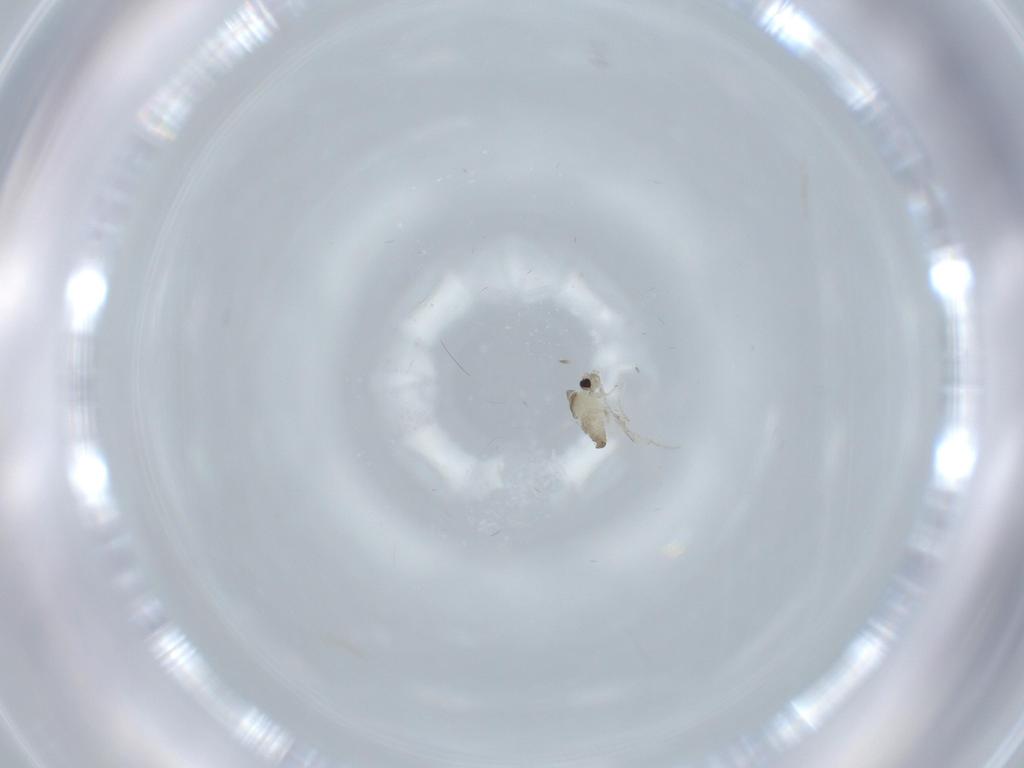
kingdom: Animalia
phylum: Arthropoda
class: Insecta
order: Diptera
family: Cecidomyiidae
